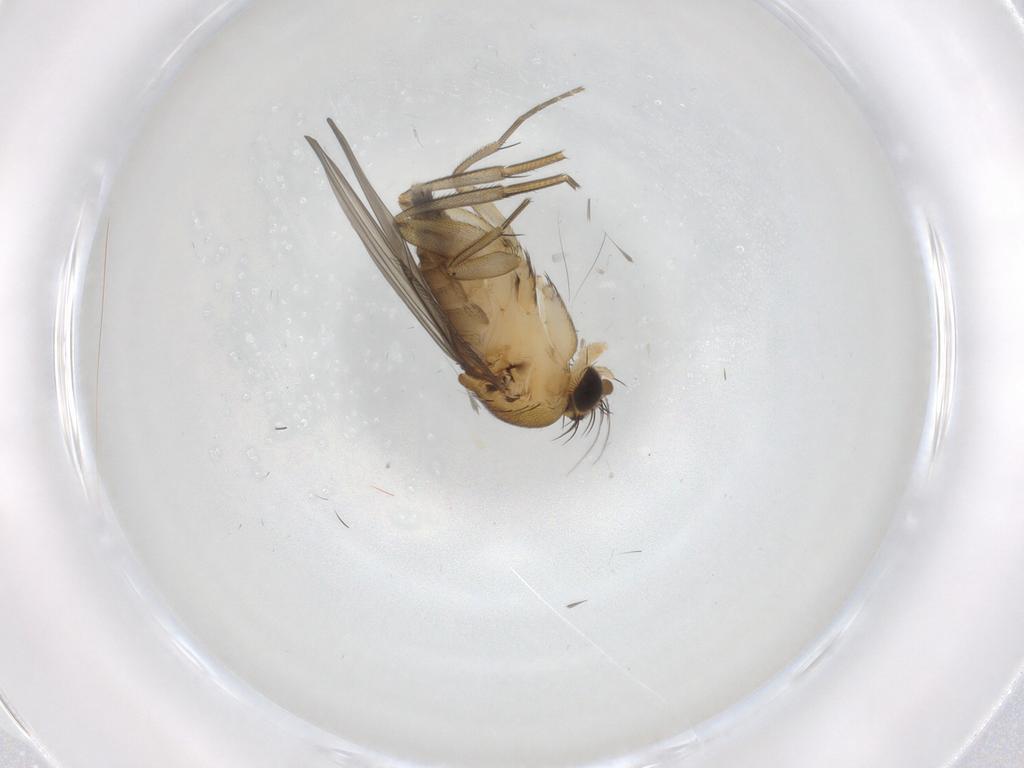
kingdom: Animalia
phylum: Arthropoda
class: Insecta
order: Diptera
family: Phoridae
